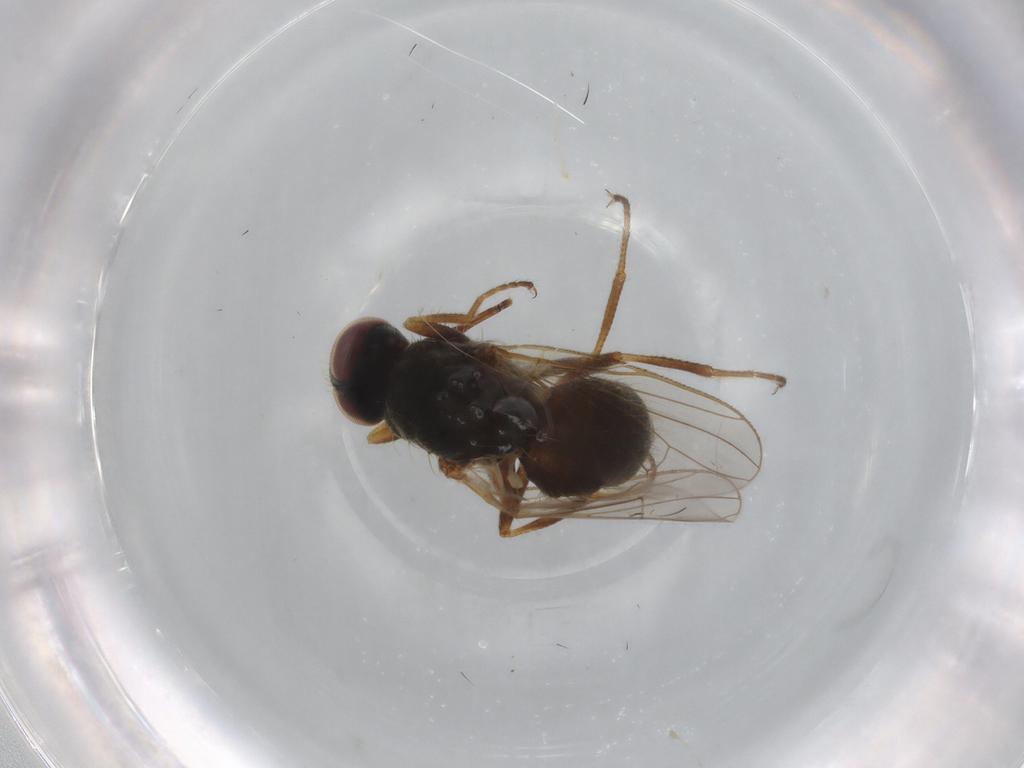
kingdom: Animalia
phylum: Arthropoda
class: Insecta
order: Diptera
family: Muscidae
